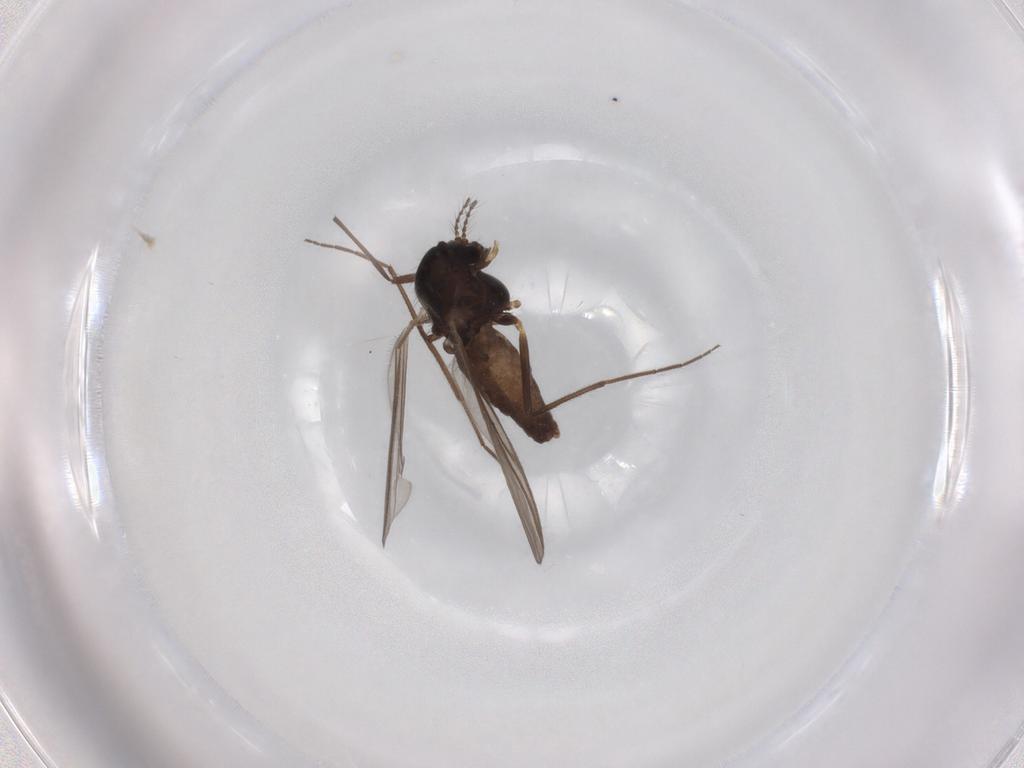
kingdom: Animalia
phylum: Arthropoda
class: Insecta
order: Diptera
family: Chironomidae
